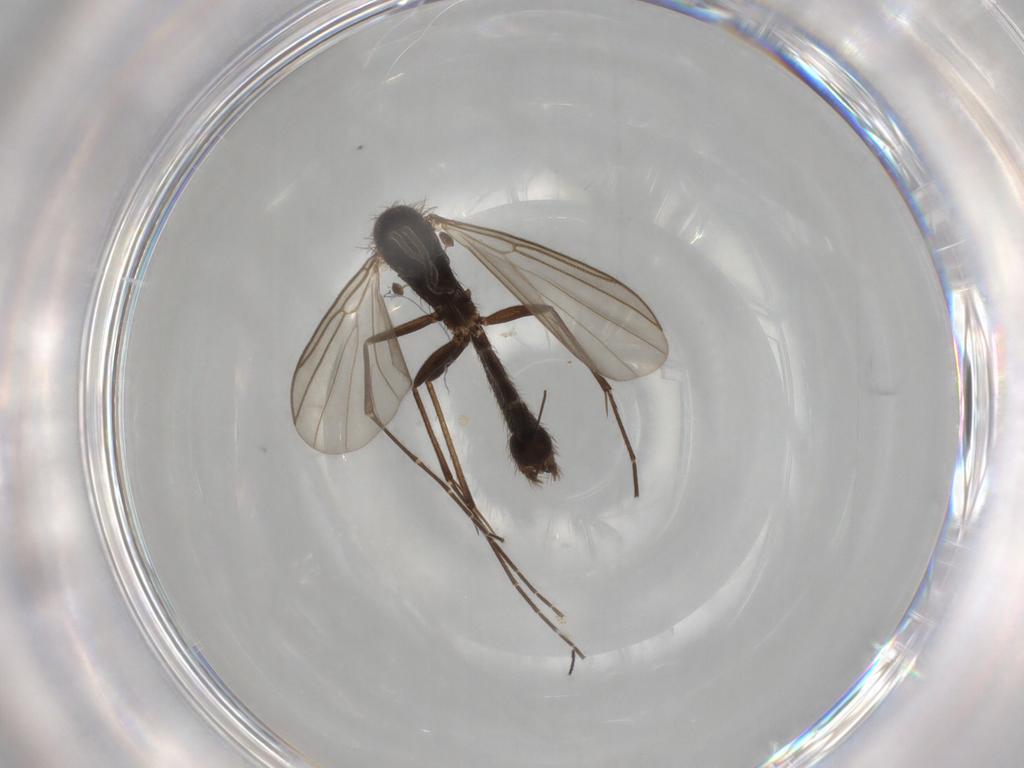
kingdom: Animalia
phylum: Arthropoda
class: Insecta
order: Diptera
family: Mycetophilidae
